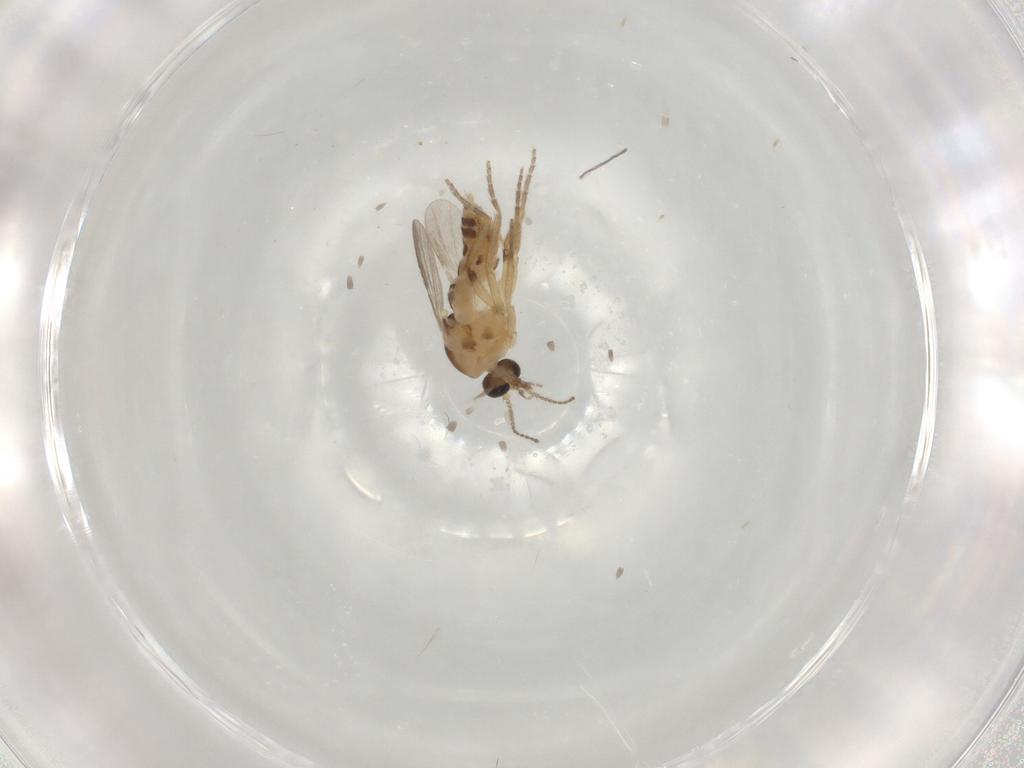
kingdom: Animalia
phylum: Arthropoda
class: Insecta
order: Diptera
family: Ceratopogonidae
